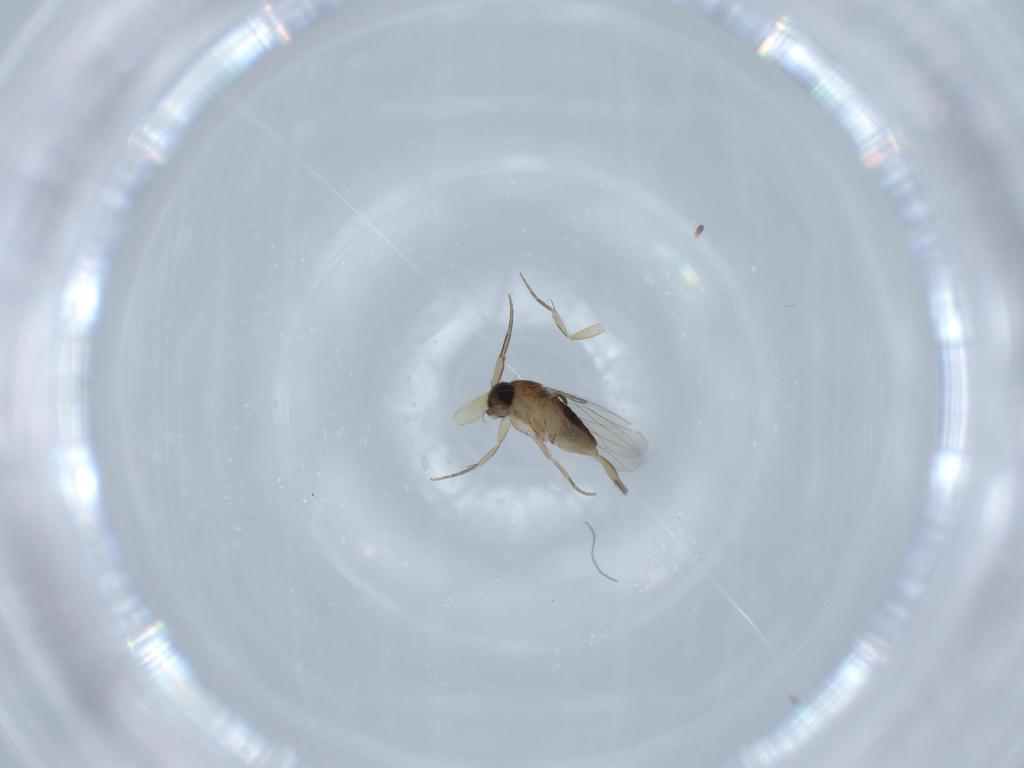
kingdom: Animalia
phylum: Arthropoda
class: Insecta
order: Diptera
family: Phoridae
